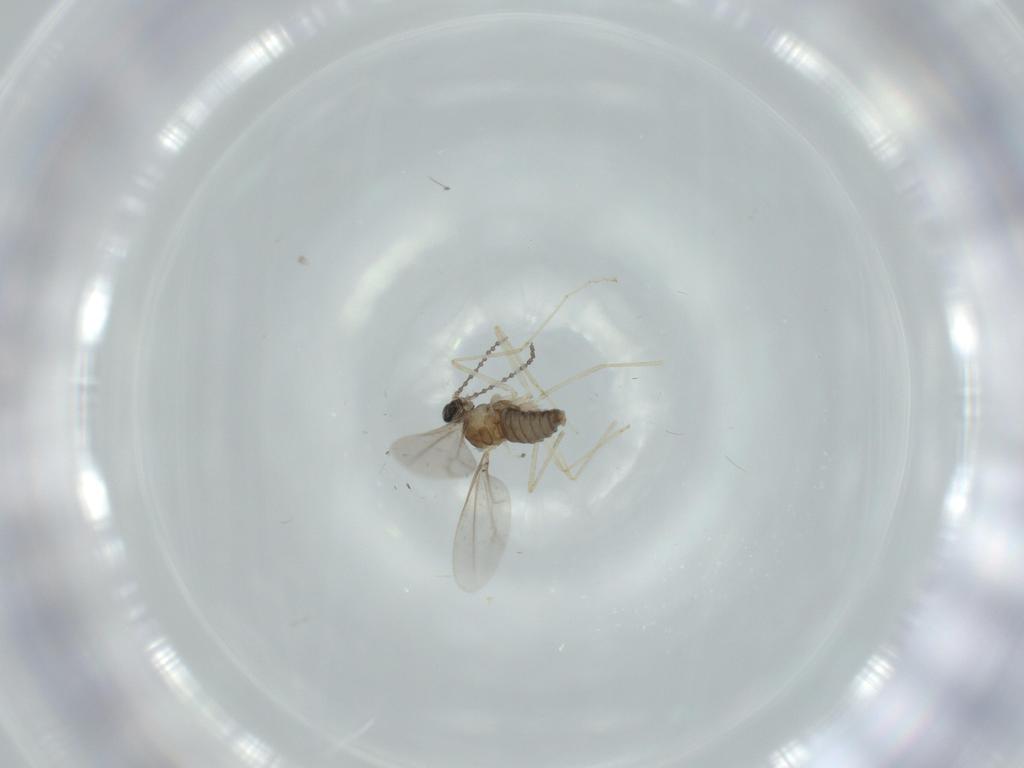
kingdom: Animalia
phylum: Arthropoda
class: Insecta
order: Diptera
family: Cecidomyiidae
